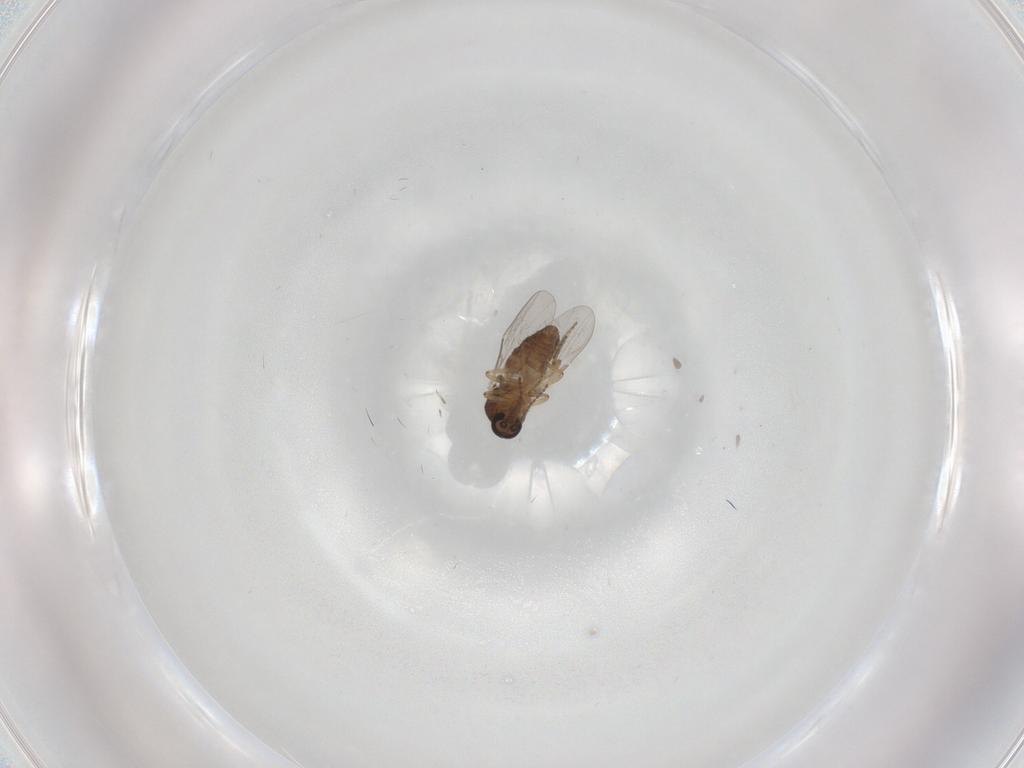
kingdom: Animalia
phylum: Arthropoda
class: Insecta
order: Diptera
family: Ceratopogonidae
